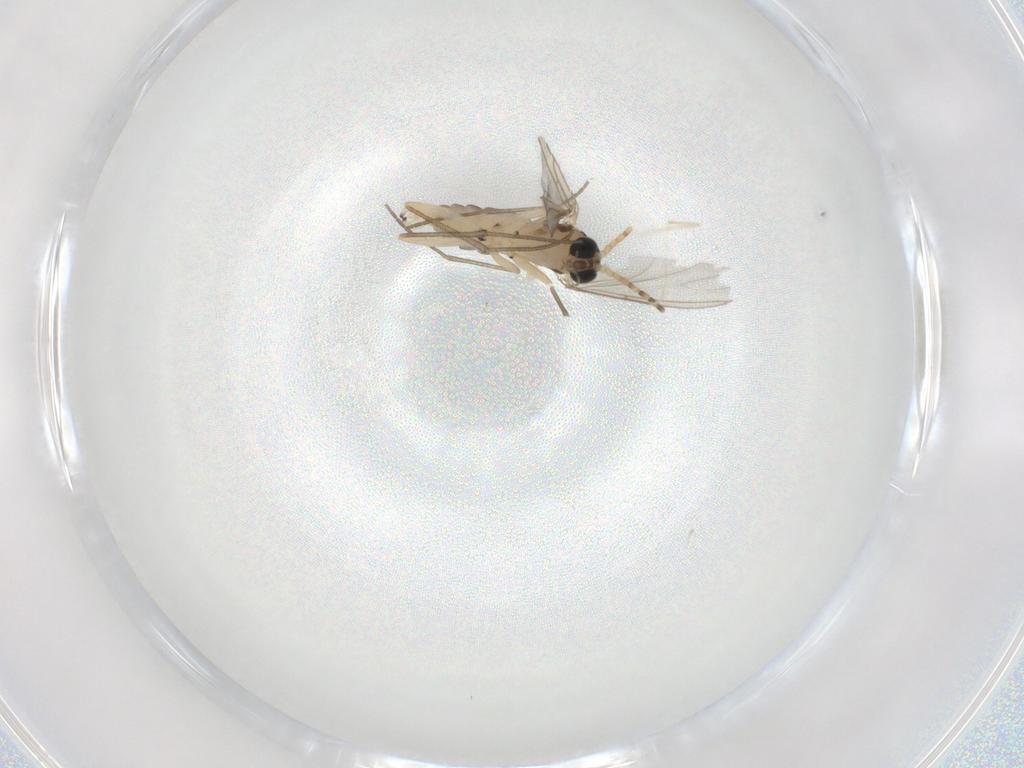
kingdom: Animalia
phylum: Arthropoda
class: Insecta
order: Diptera
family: Sciaridae
